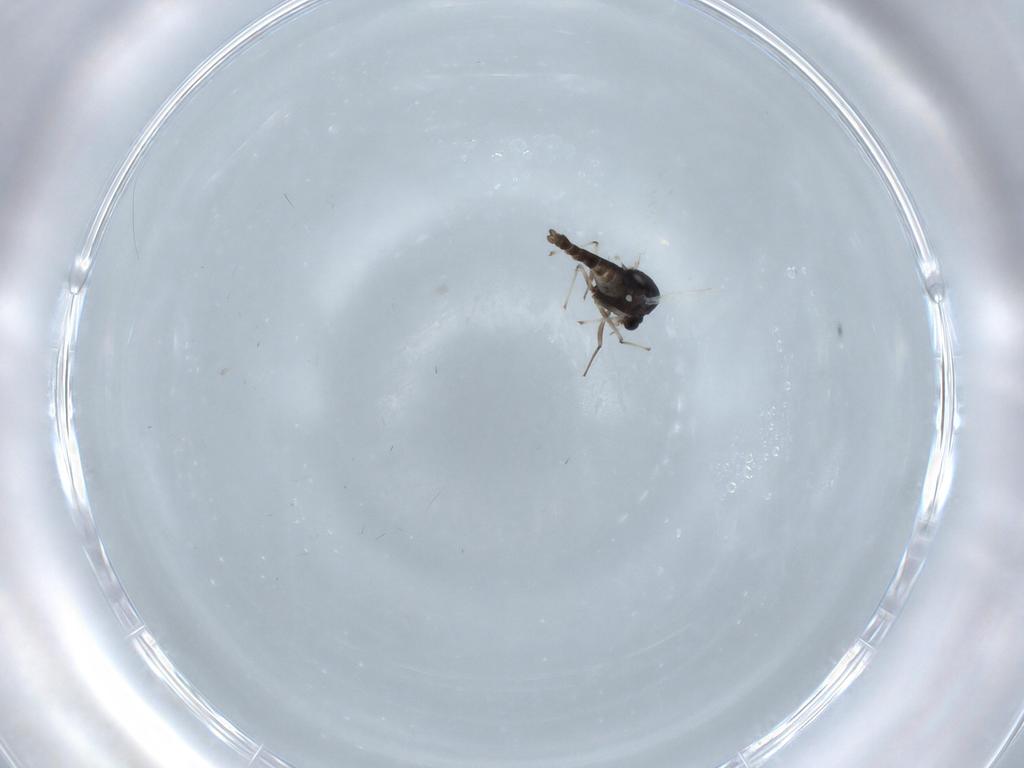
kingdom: Animalia
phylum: Arthropoda
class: Insecta
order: Diptera
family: Chironomidae
